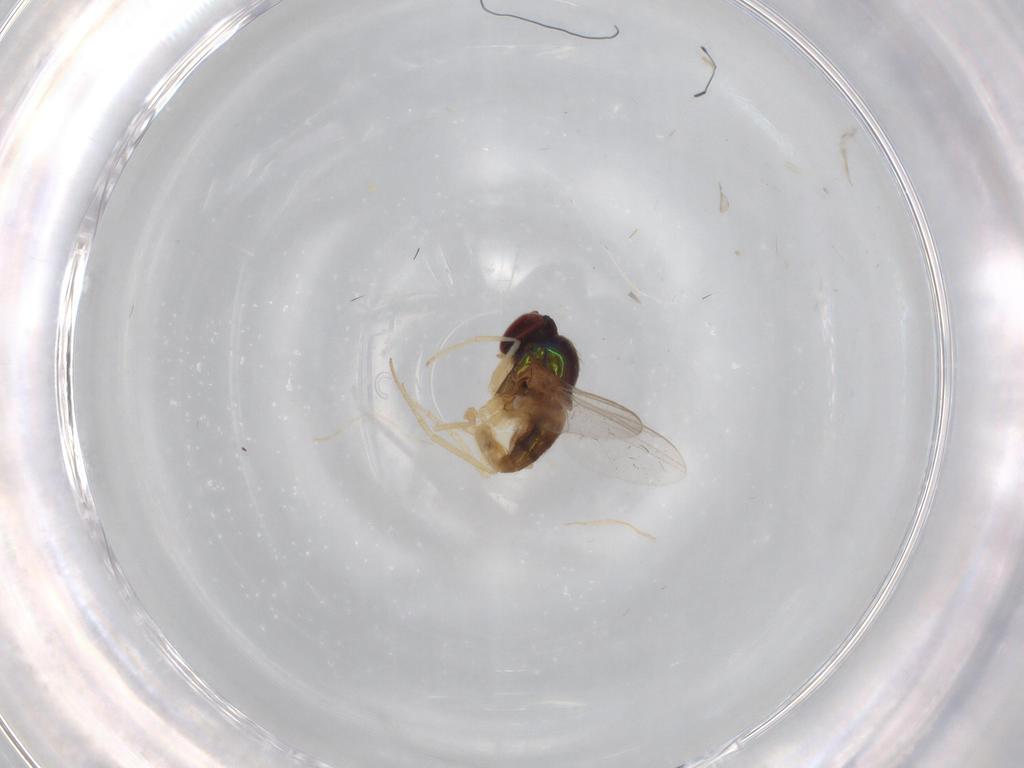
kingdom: Animalia
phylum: Arthropoda
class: Insecta
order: Diptera
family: Dolichopodidae
